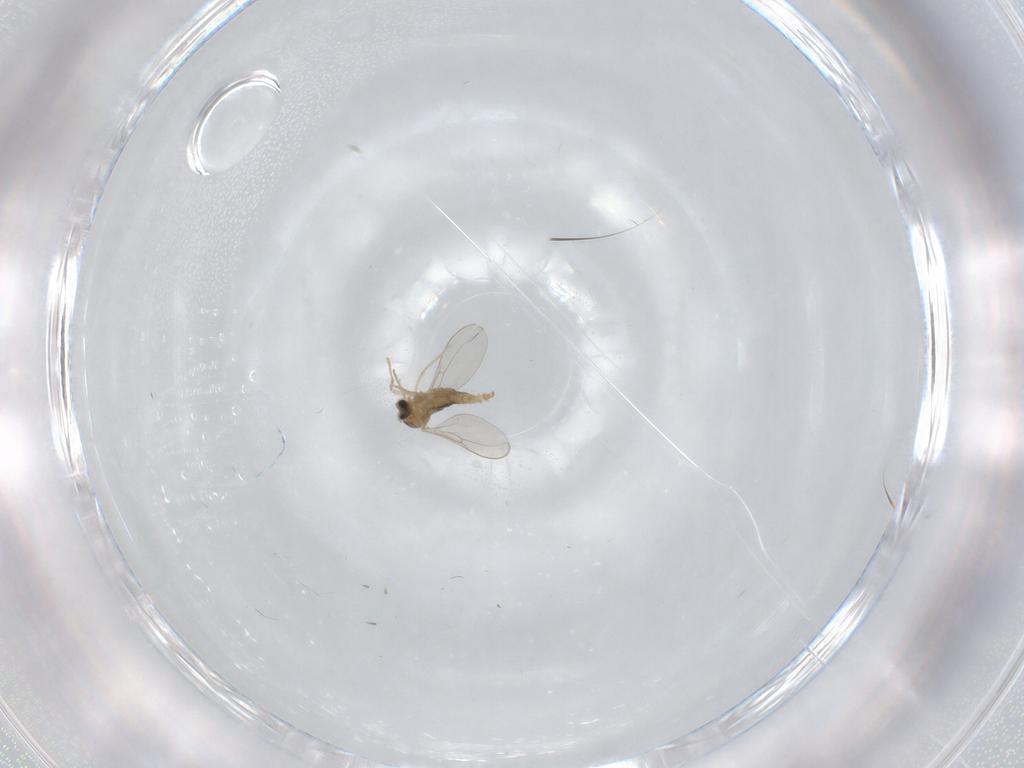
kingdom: Animalia
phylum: Arthropoda
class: Insecta
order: Diptera
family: Cecidomyiidae
